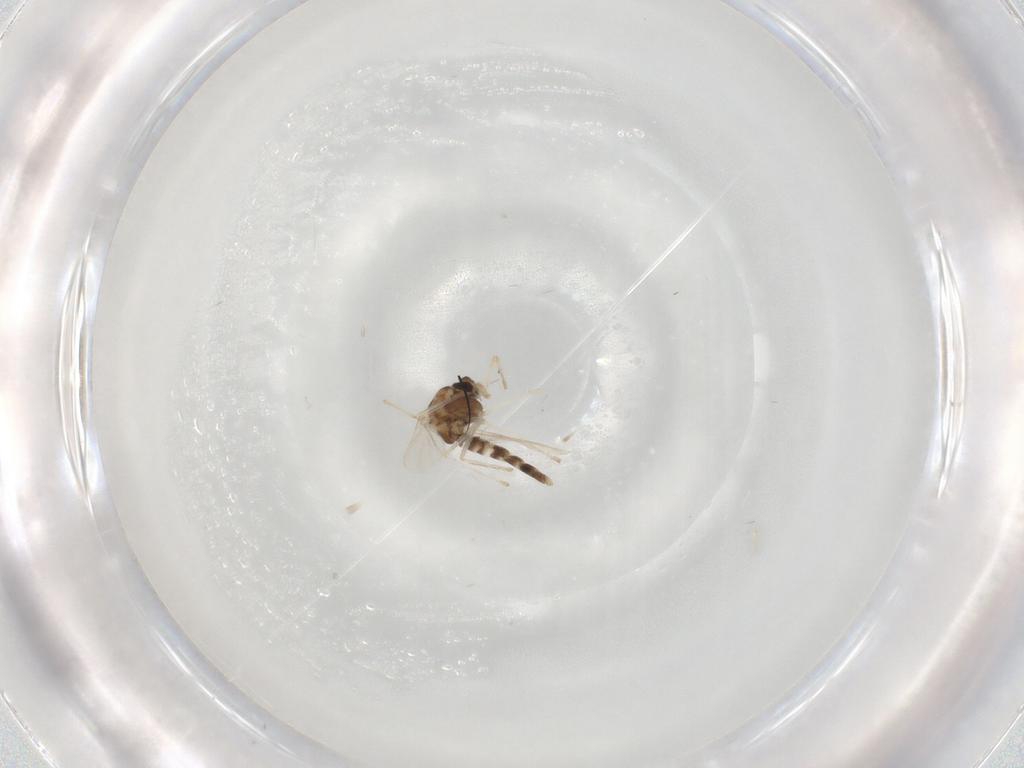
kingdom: Animalia
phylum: Arthropoda
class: Insecta
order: Diptera
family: Chironomidae
